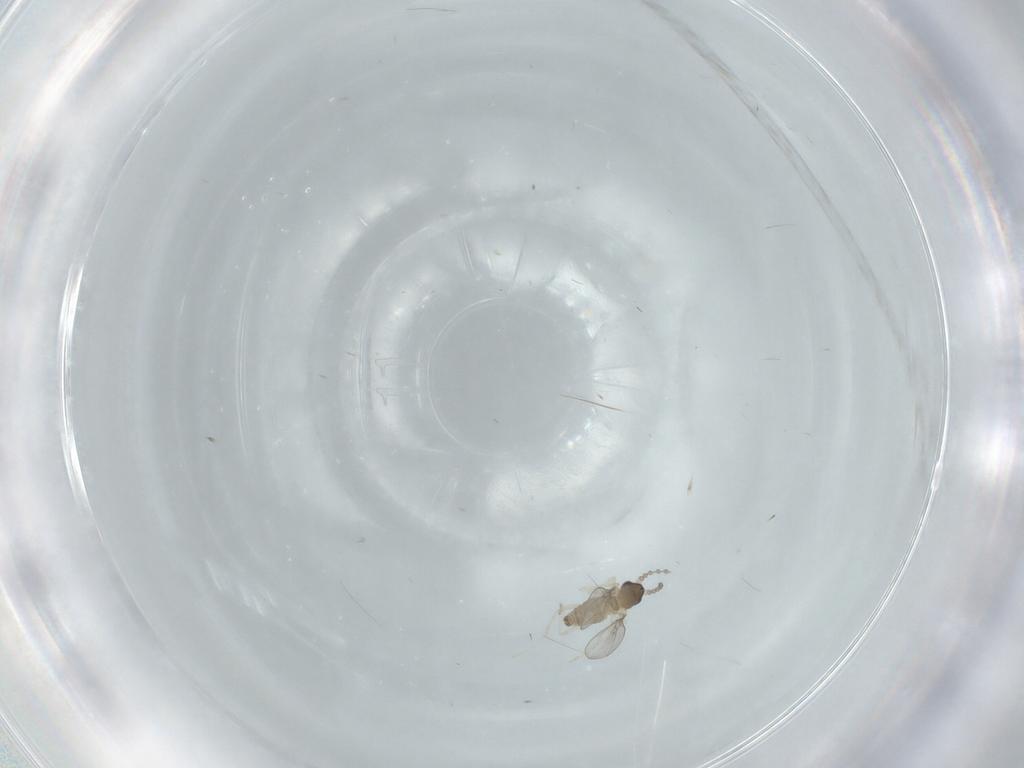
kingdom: Animalia
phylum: Arthropoda
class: Insecta
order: Diptera
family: Cecidomyiidae
